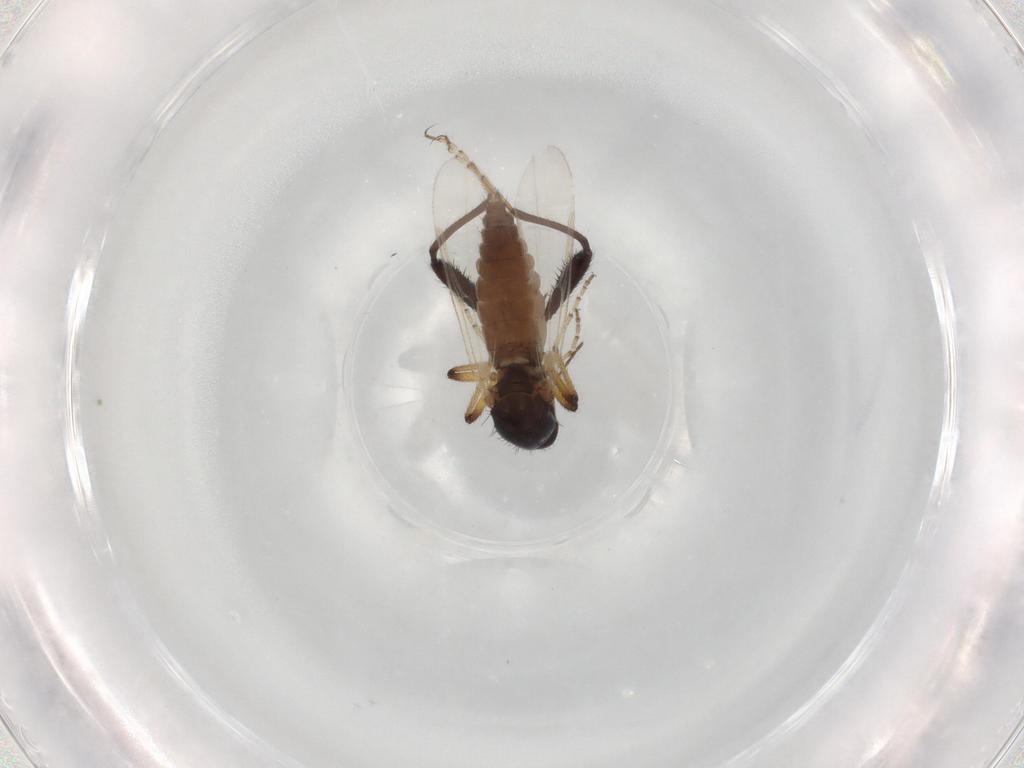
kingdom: Animalia
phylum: Arthropoda
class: Insecta
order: Diptera
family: Ceratopogonidae
